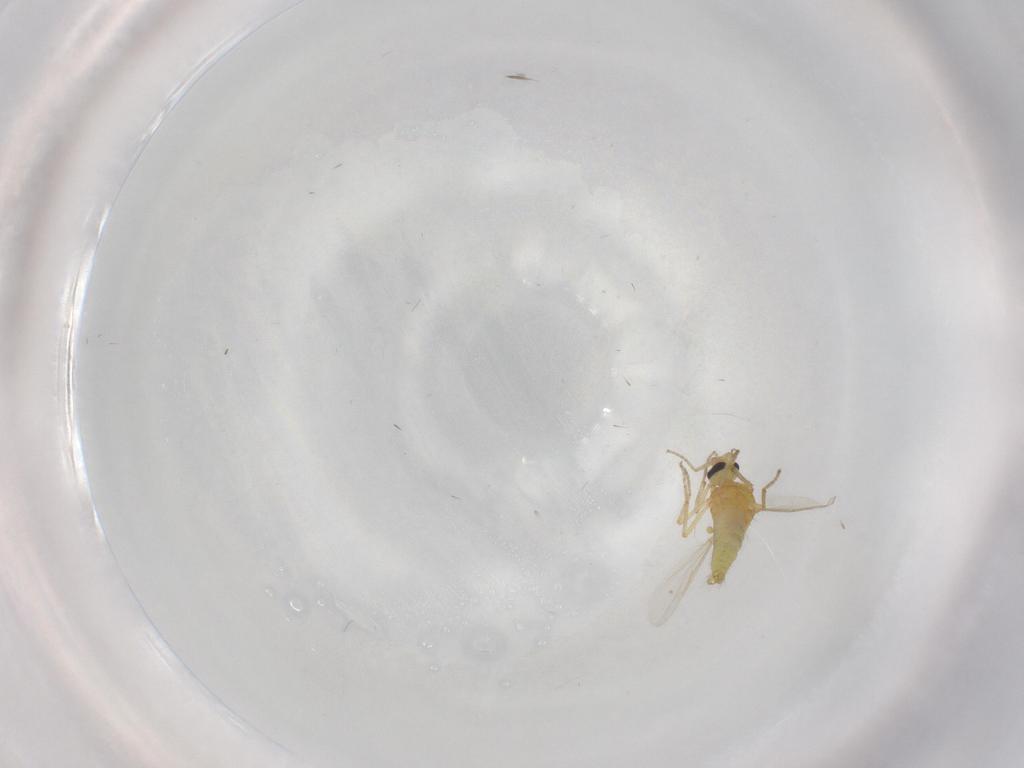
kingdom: Animalia
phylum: Arthropoda
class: Insecta
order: Diptera
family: Ceratopogonidae
